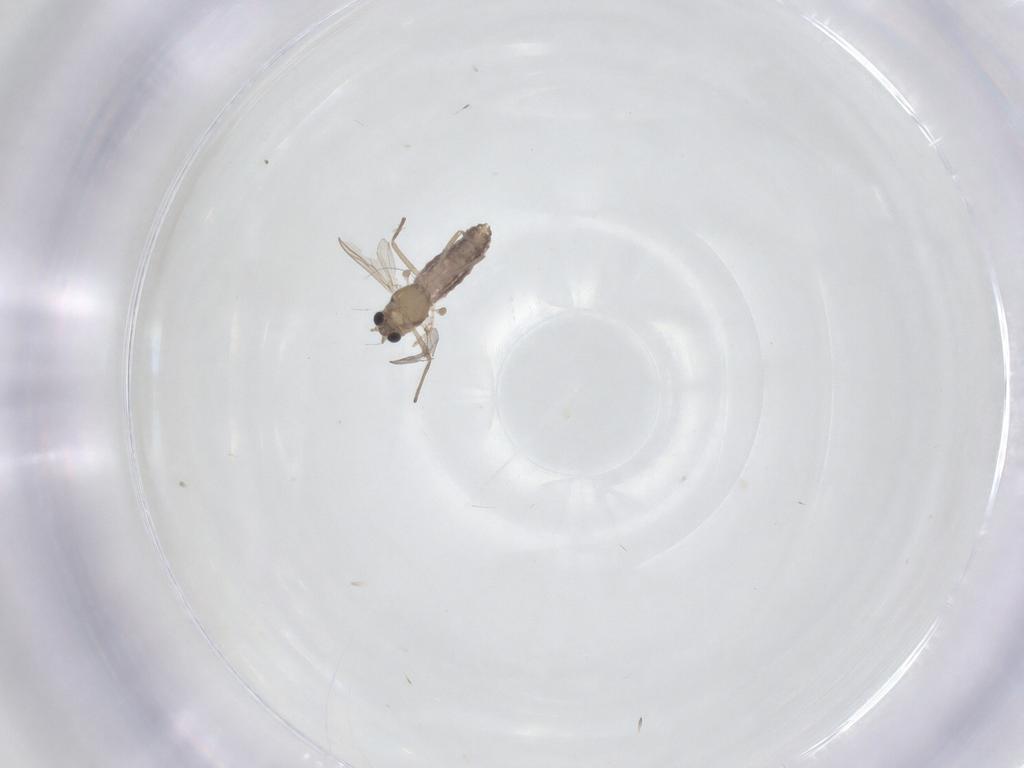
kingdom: Animalia
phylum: Arthropoda
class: Insecta
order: Diptera
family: Chironomidae
